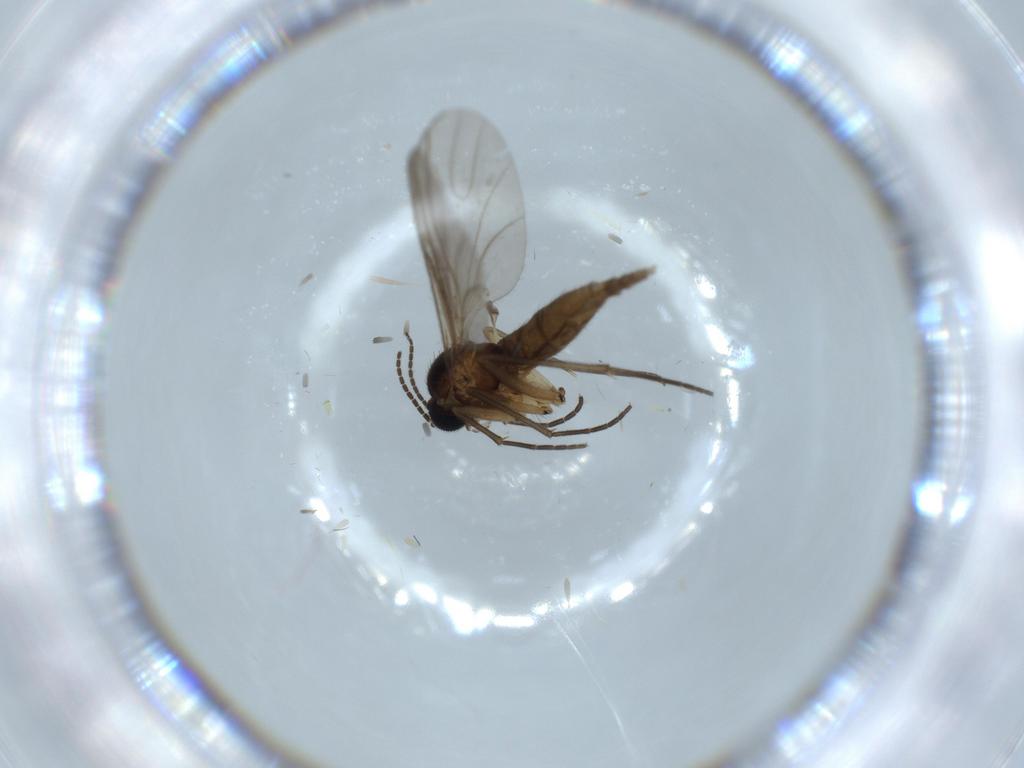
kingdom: Animalia
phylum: Arthropoda
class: Insecta
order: Diptera
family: Sciaridae
